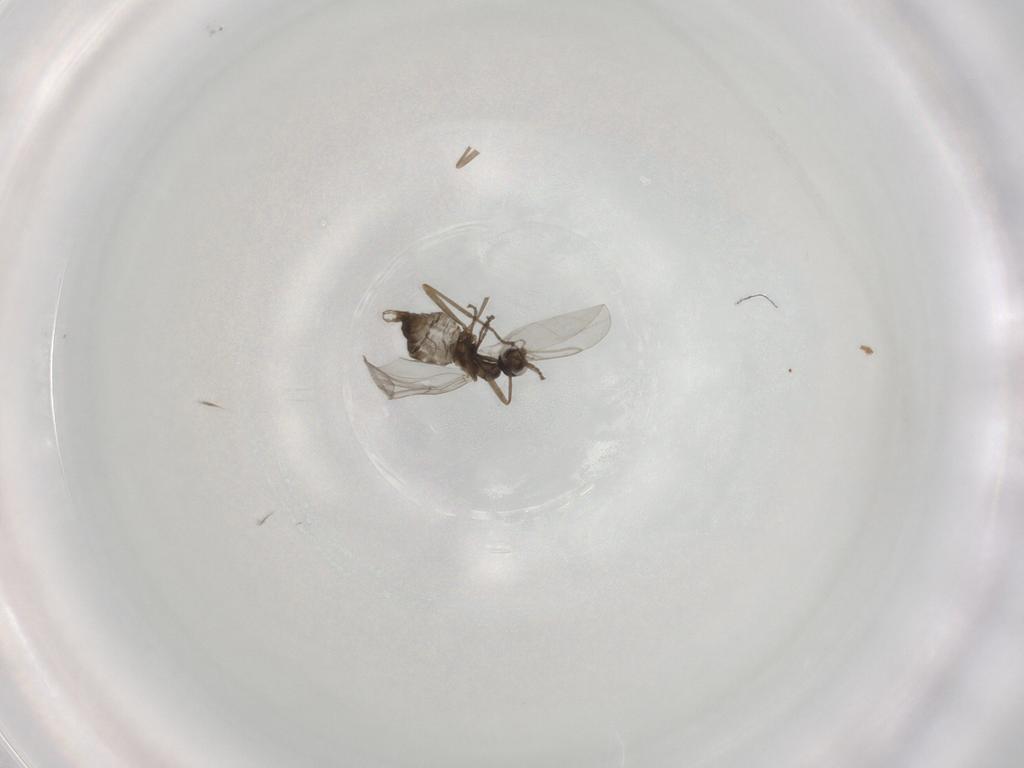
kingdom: Animalia
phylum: Arthropoda
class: Insecta
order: Diptera
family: Cecidomyiidae
